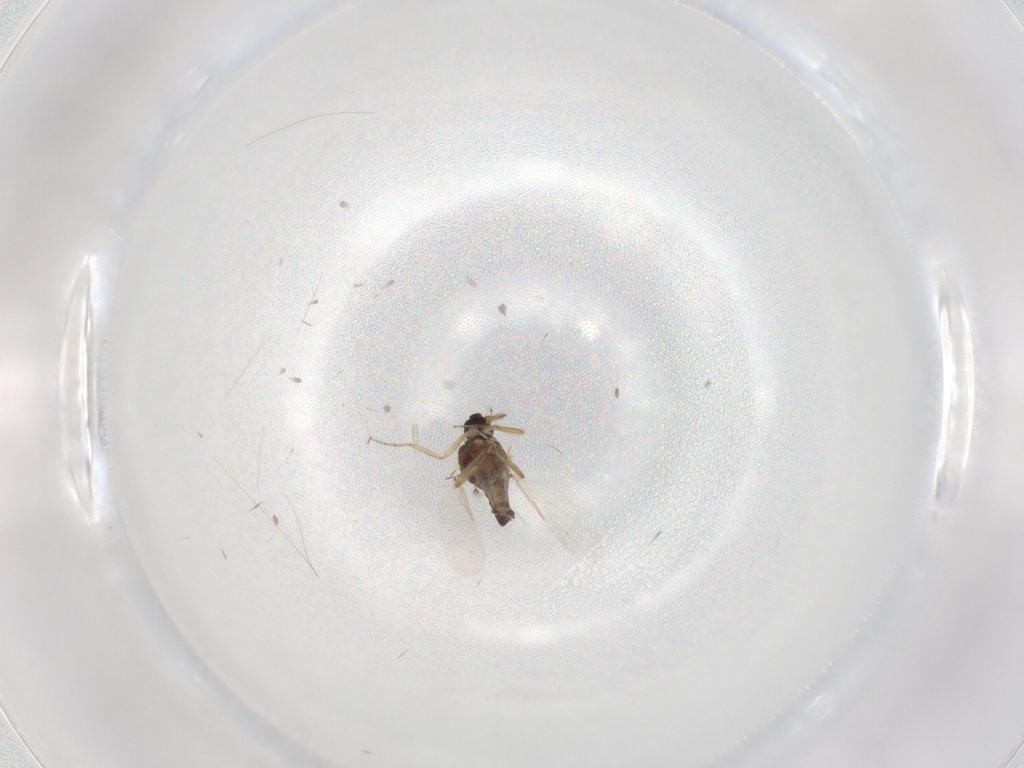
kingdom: Animalia
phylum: Arthropoda
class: Insecta
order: Diptera
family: Ceratopogonidae
